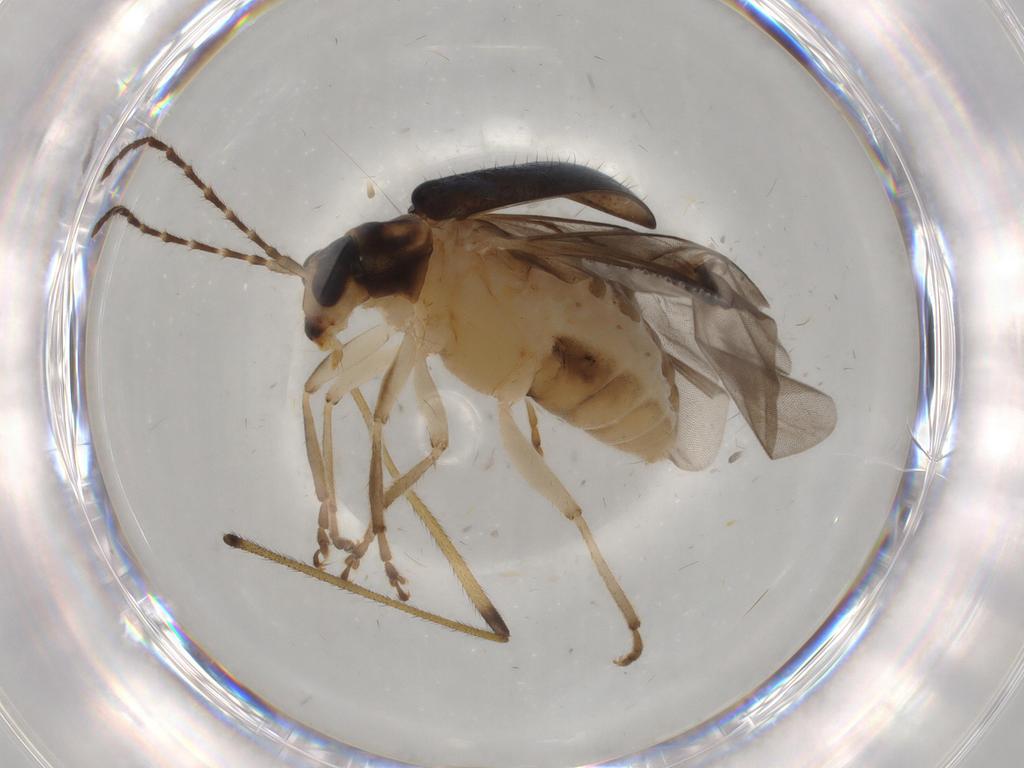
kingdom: Animalia
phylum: Arthropoda
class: Insecta
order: Coleoptera
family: Chrysomelidae
